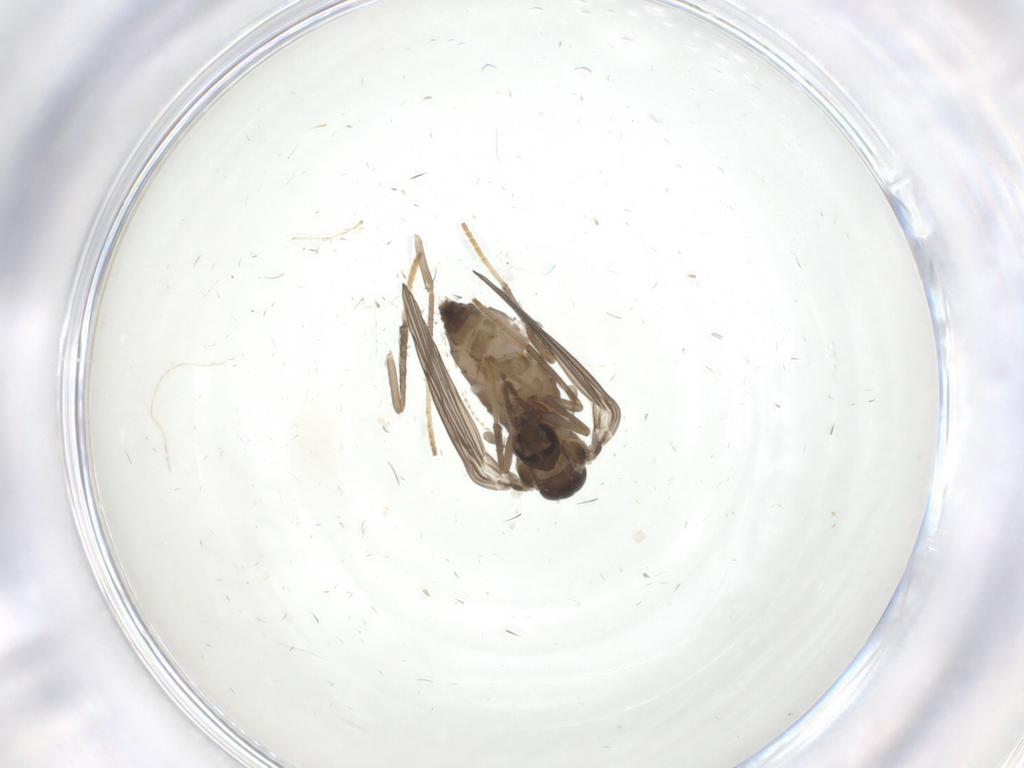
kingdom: Animalia
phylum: Arthropoda
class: Insecta
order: Diptera
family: Psychodidae
